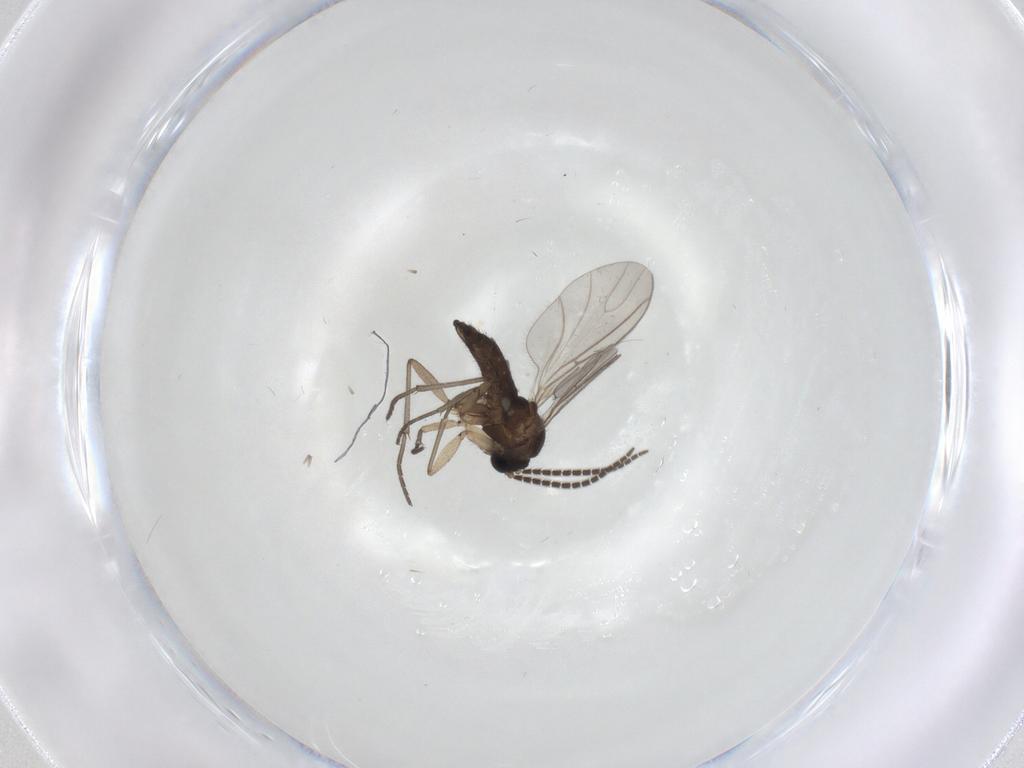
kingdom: Animalia
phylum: Arthropoda
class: Insecta
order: Diptera
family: Sciaridae
